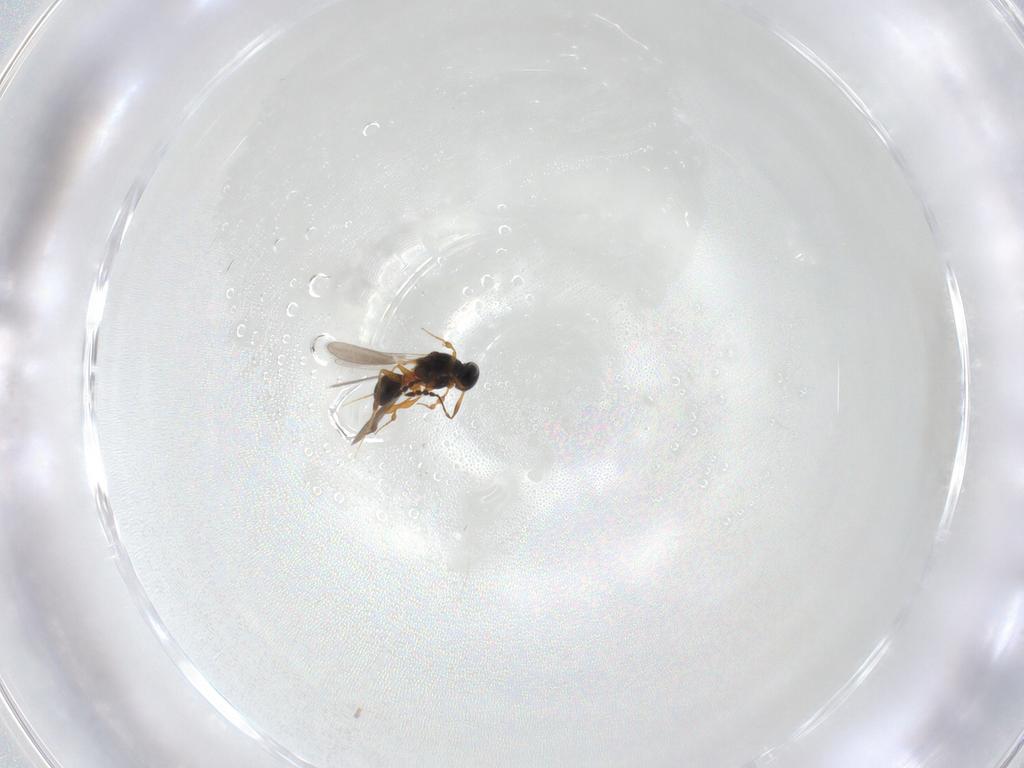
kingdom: Animalia
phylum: Arthropoda
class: Insecta
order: Hymenoptera
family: Platygastridae
